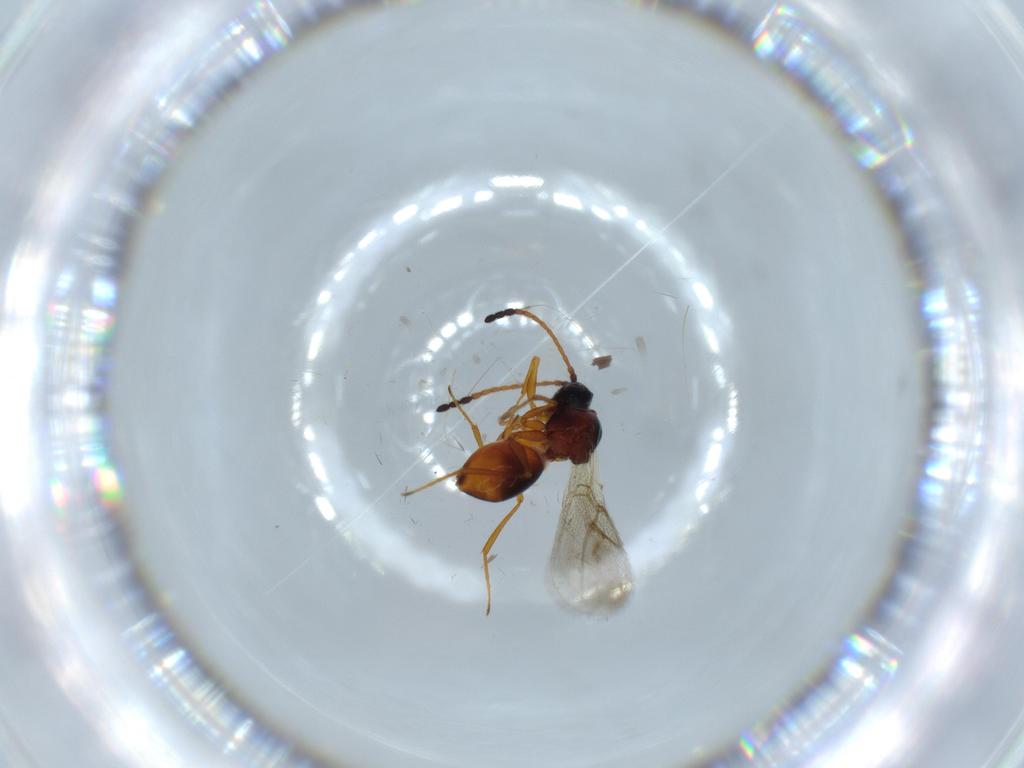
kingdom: Animalia
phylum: Arthropoda
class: Insecta
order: Hymenoptera
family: Figitidae
